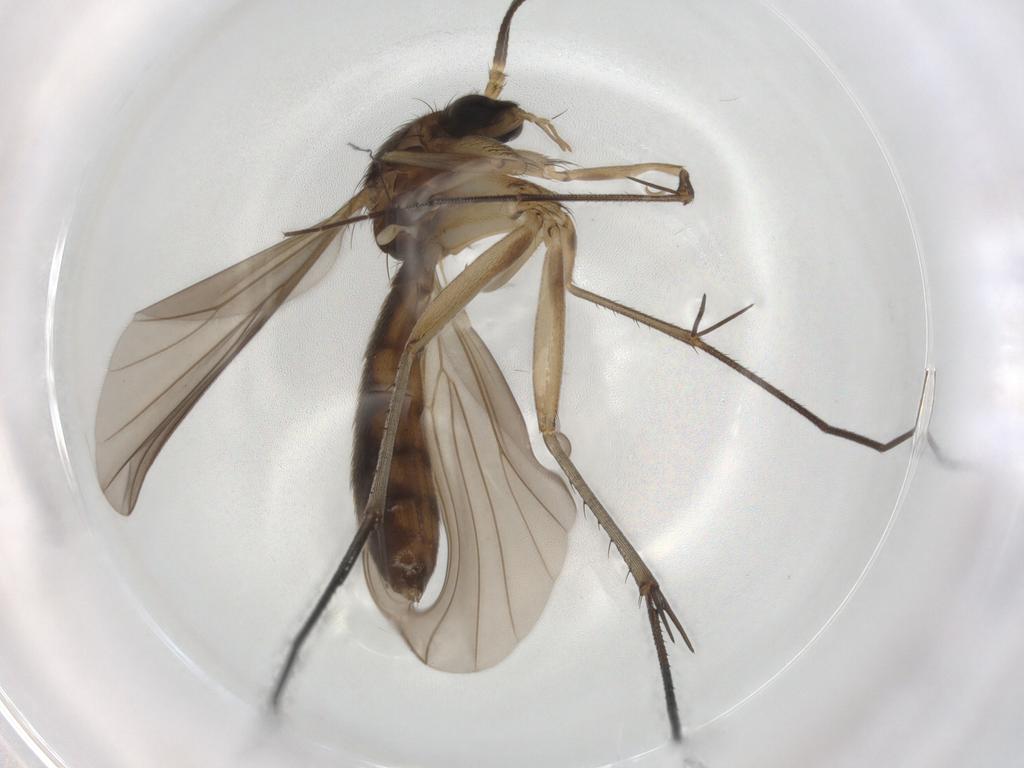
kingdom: Animalia
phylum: Arthropoda
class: Insecta
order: Diptera
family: Chironomidae
